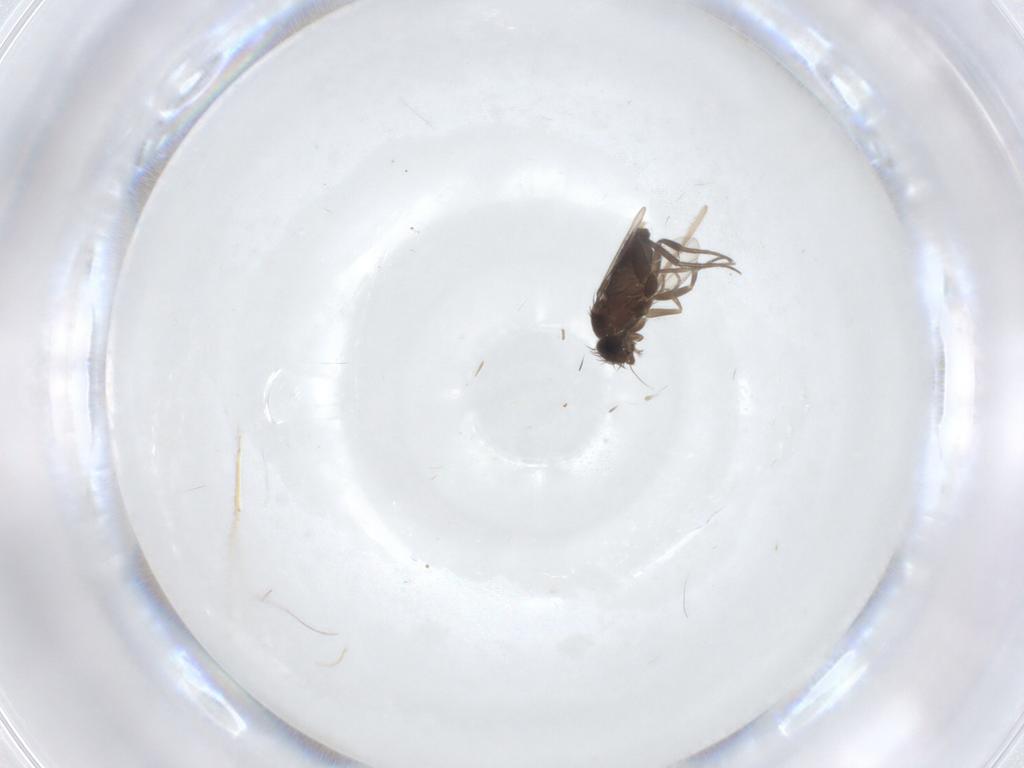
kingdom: Animalia
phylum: Arthropoda
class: Insecta
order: Diptera
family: Phoridae
